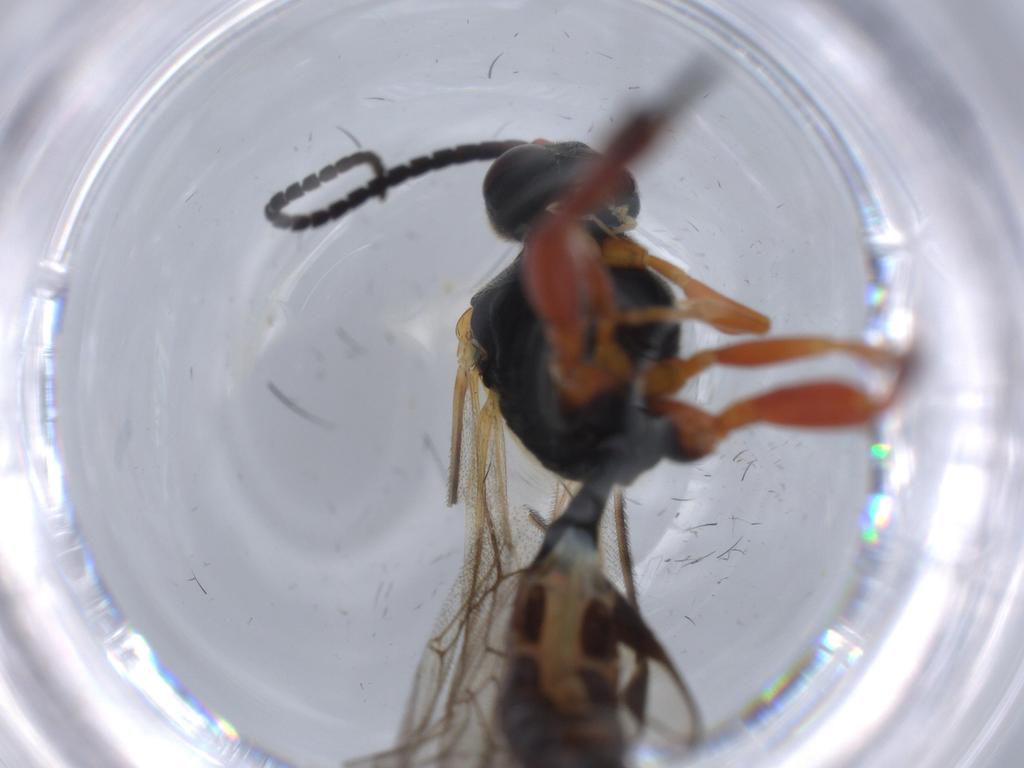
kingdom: Animalia
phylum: Arthropoda
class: Insecta
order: Hymenoptera
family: Ichneumonidae
